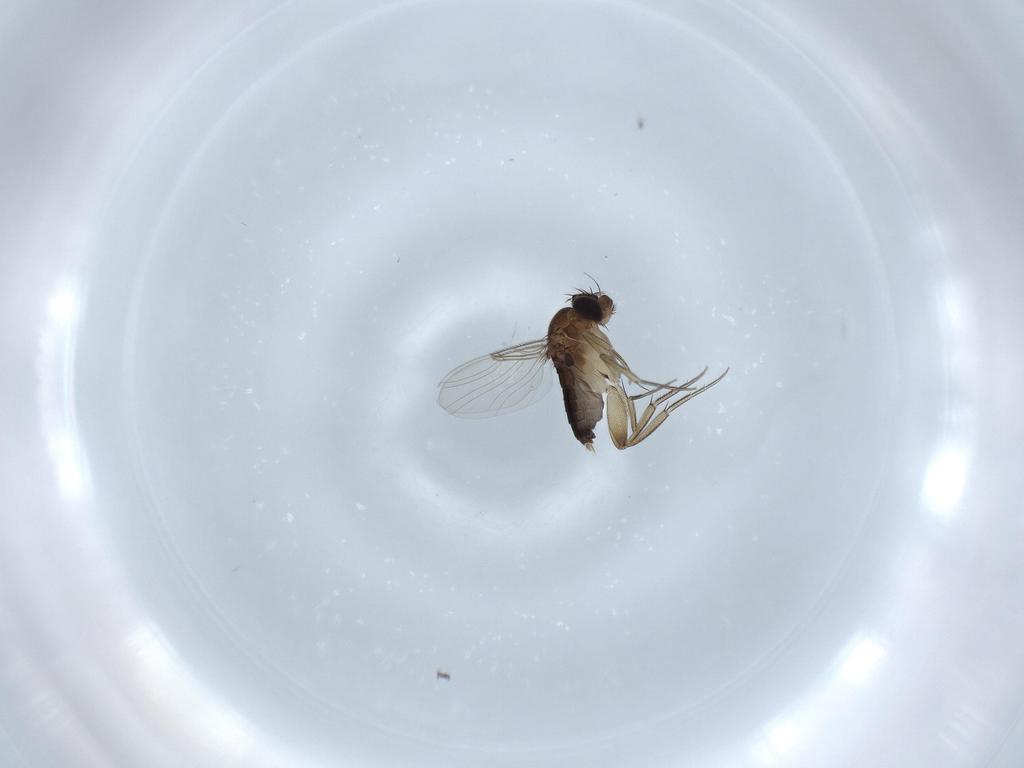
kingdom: Animalia
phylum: Arthropoda
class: Insecta
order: Diptera
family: Phoridae
